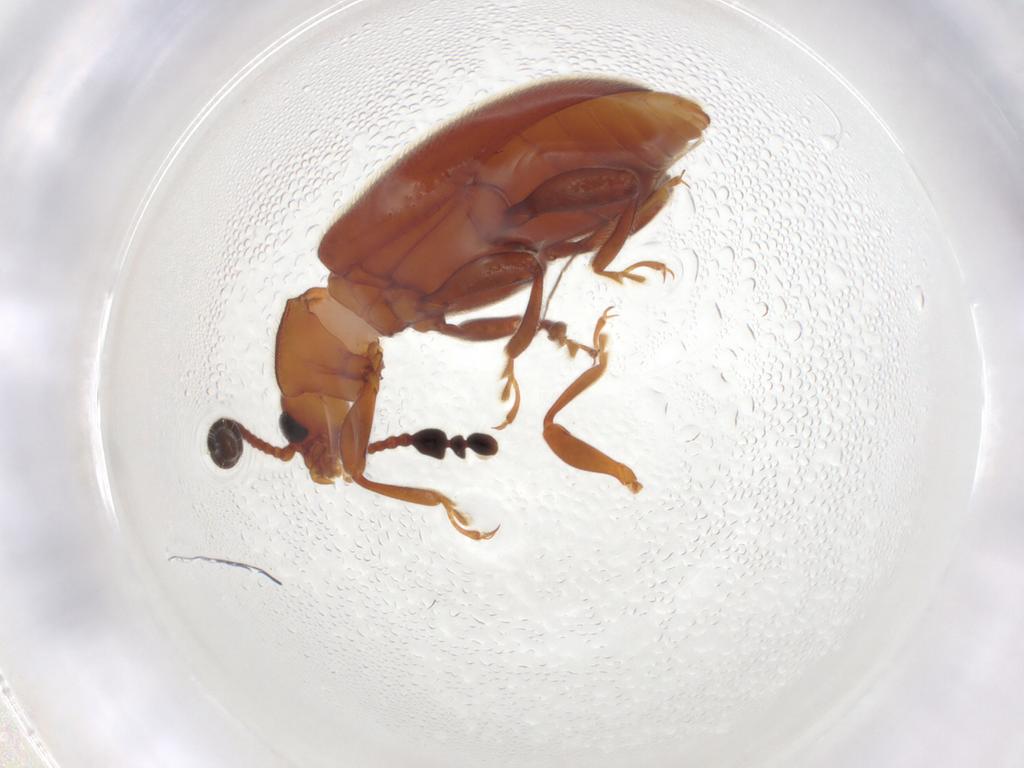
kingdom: Animalia
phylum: Arthropoda
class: Insecta
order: Coleoptera
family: Endomychidae
